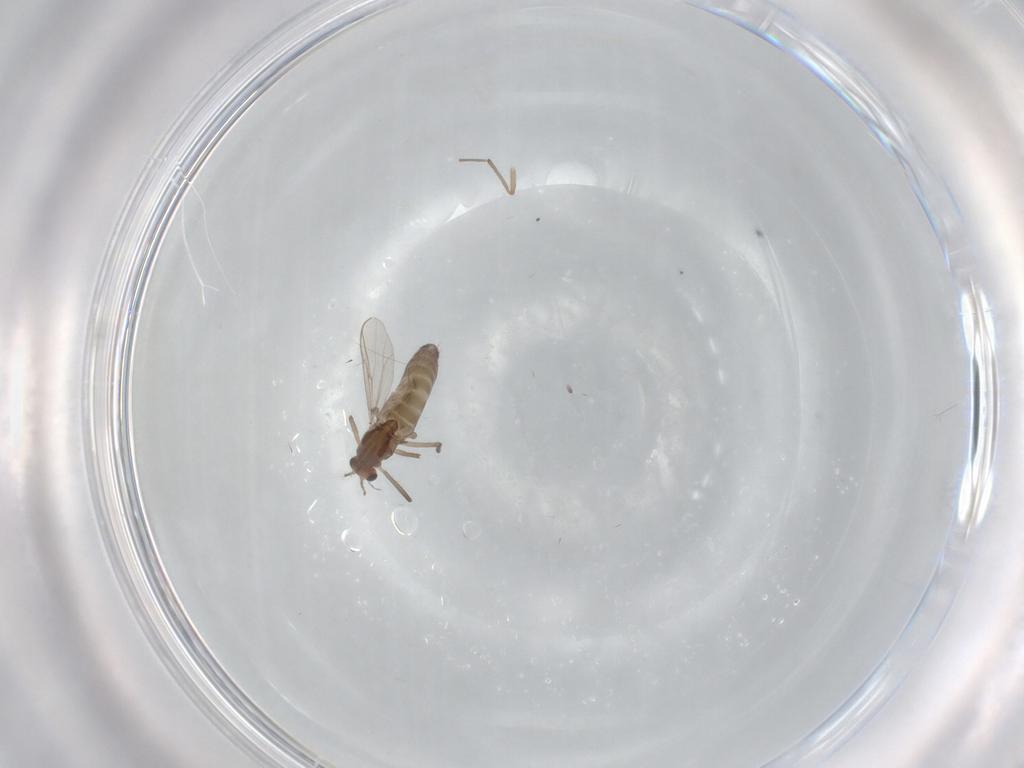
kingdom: Animalia
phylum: Arthropoda
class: Insecta
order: Diptera
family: Chironomidae
